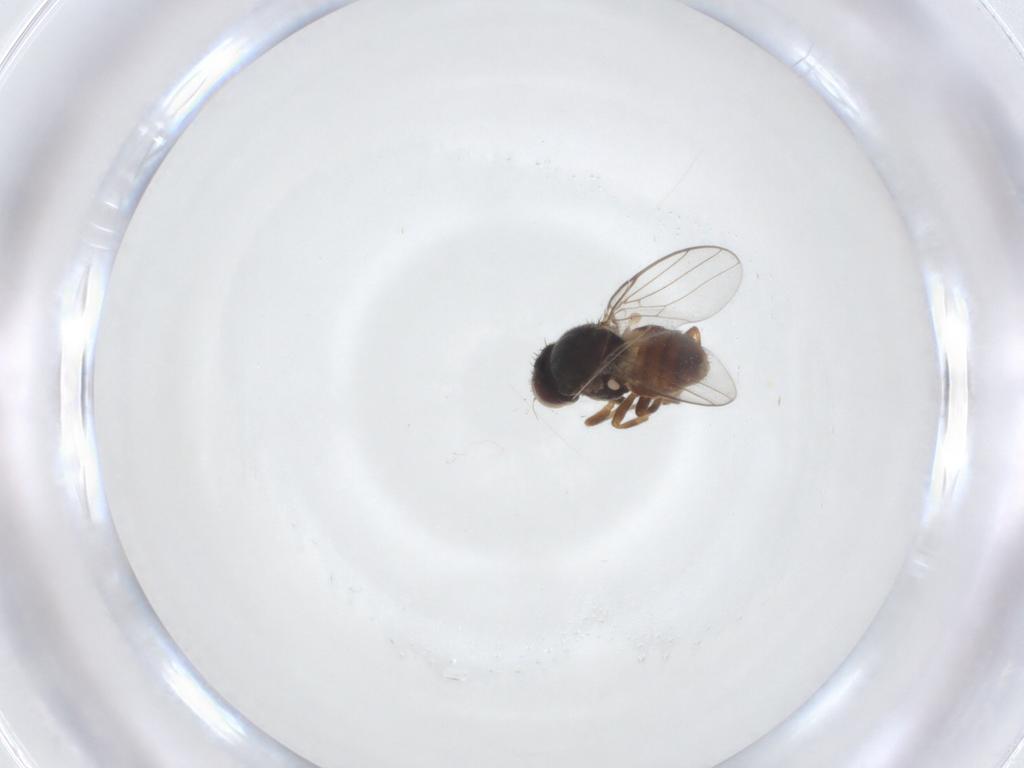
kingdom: Animalia
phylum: Arthropoda
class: Insecta
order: Diptera
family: Chloropidae
